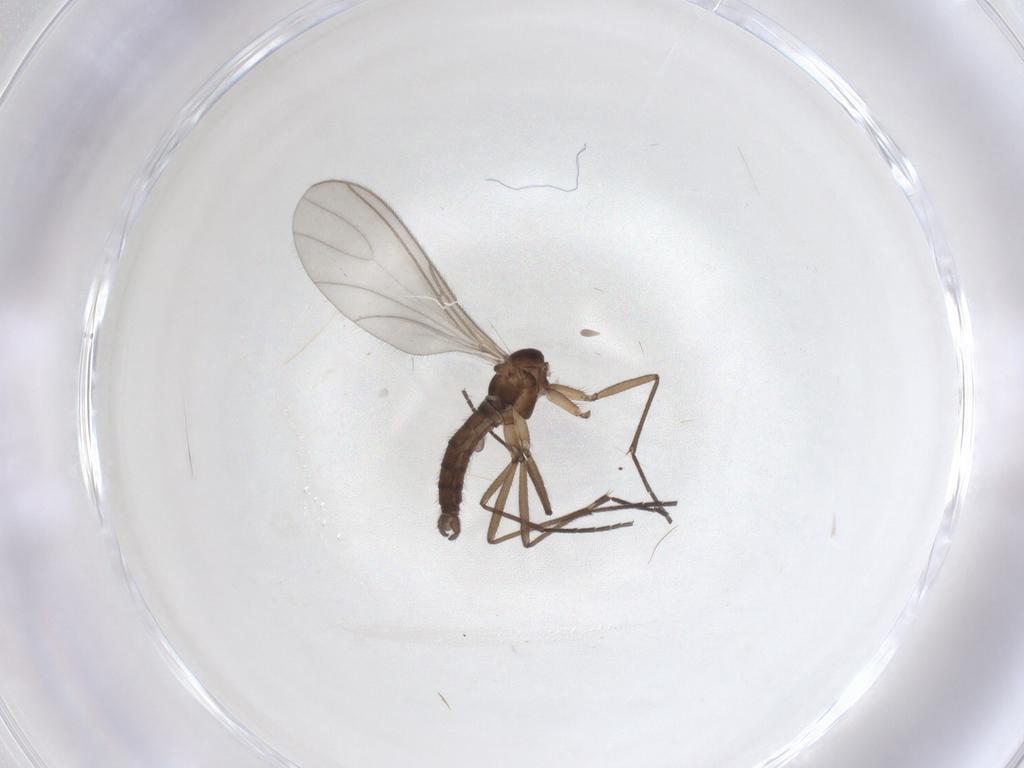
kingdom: Animalia
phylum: Arthropoda
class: Insecta
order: Diptera
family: Sciaridae
